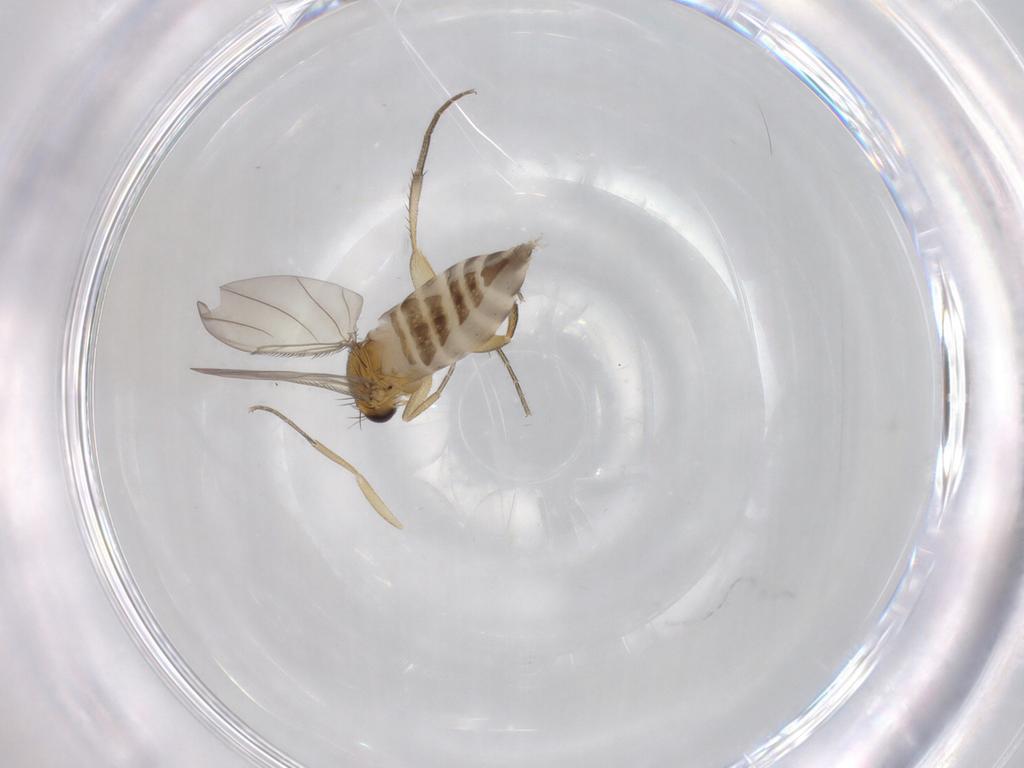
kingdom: Animalia
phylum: Arthropoda
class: Insecta
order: Diptera
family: Phoridae
